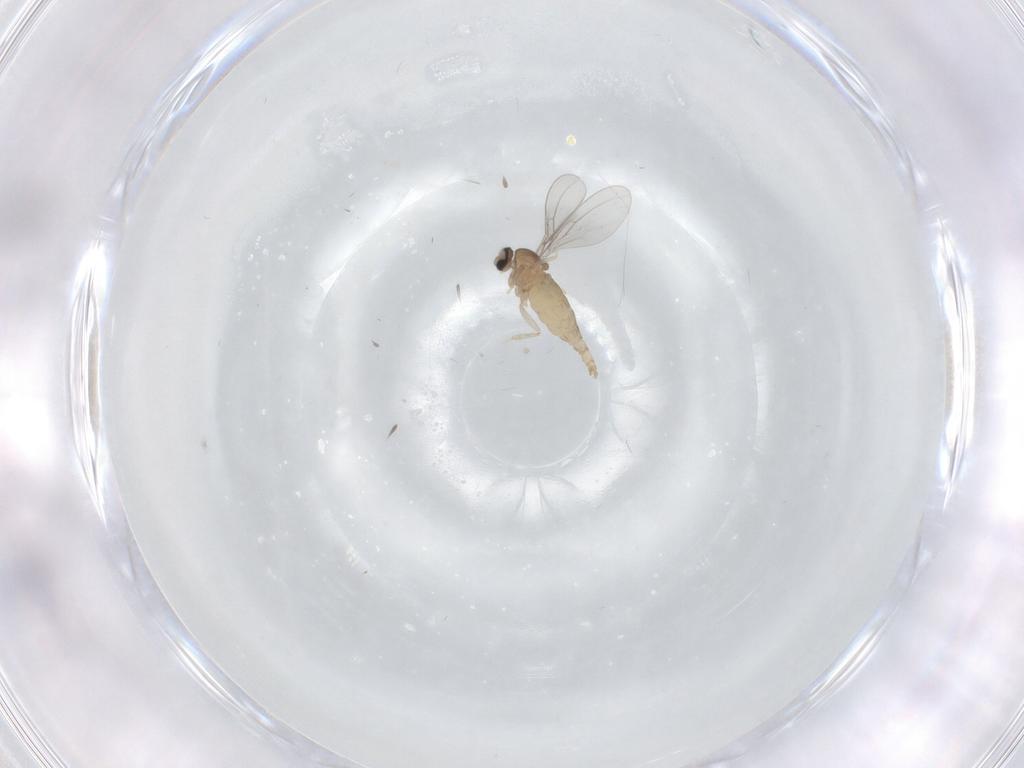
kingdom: Animalia
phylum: Arthropoda
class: Insecta
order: Diptera
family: Cecidomyiidae
